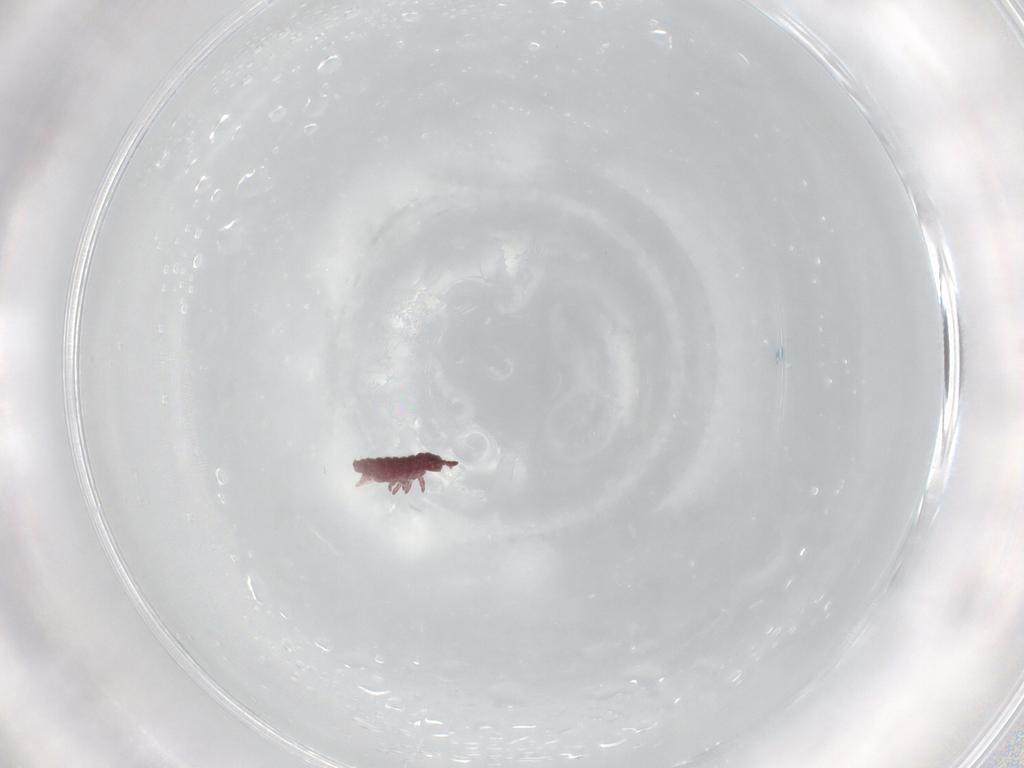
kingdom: Animalia
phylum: Arthropoda
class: Collembola
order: Poduromorpha
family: Hypogastruridae
